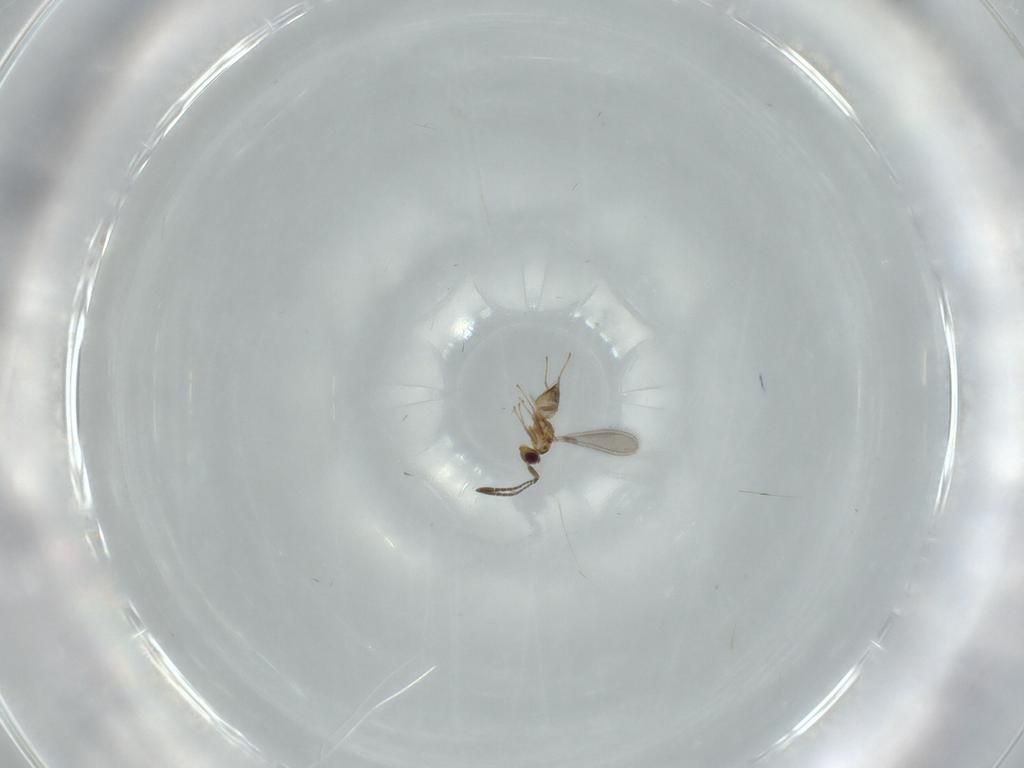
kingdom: Animalia
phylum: Arthropoda
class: Insecta
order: Hymenoptera
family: Mymaridae
